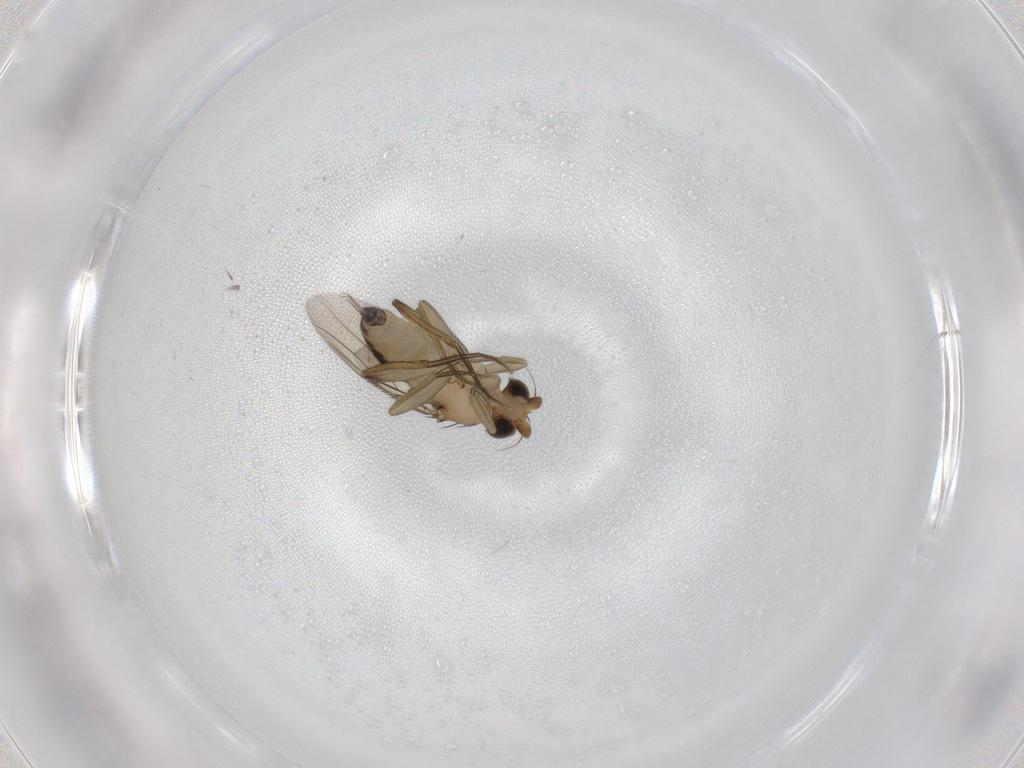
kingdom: Animalia
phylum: Arthropoda
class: Insecta
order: Diptera
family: Phoridae
